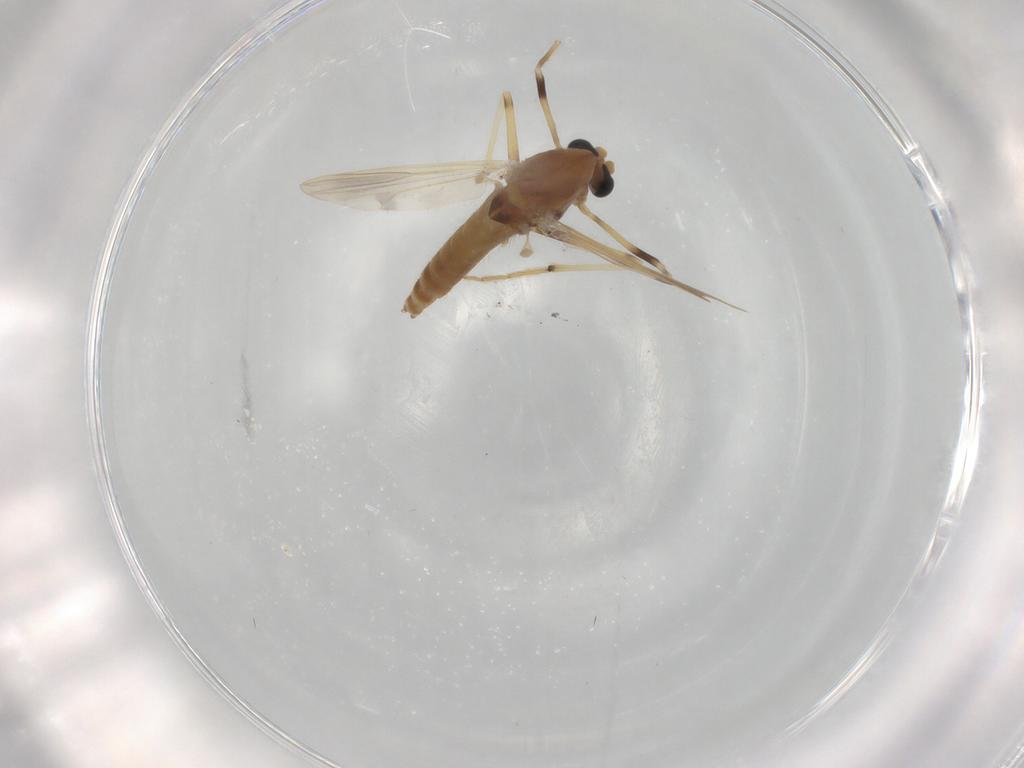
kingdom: Animalia
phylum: Arthropoda
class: Insecta
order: Diptera
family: Chironomidae
